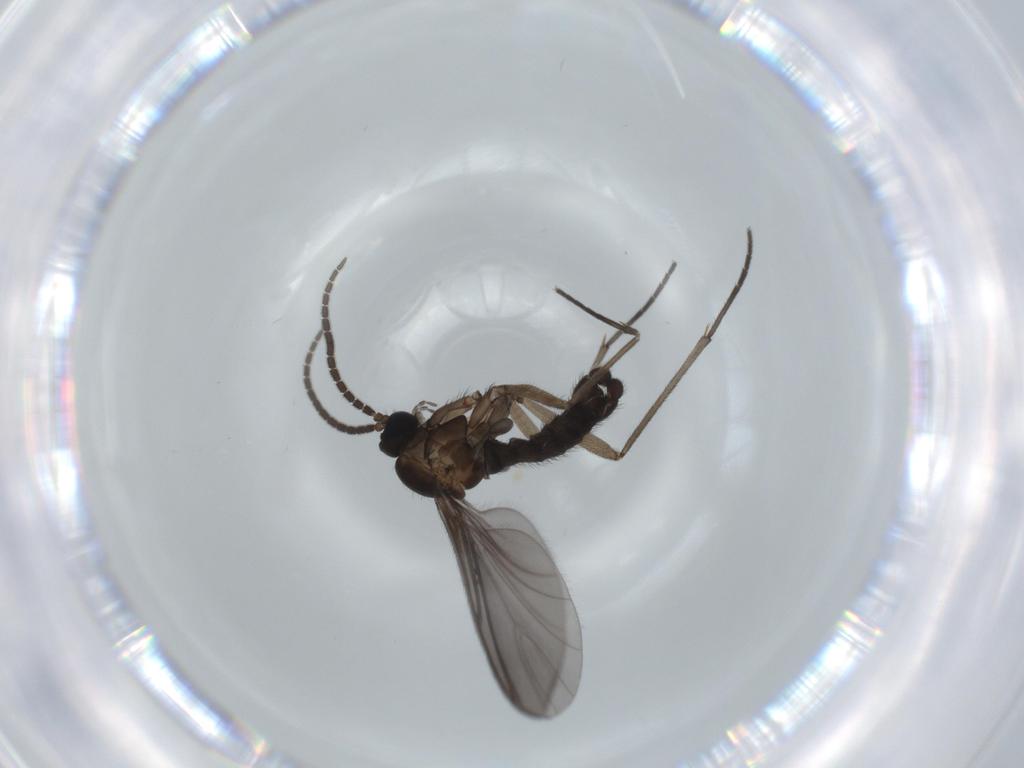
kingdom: Animalia
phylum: Arthropoda
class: Insecta
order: Diptera
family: Sciaridae
